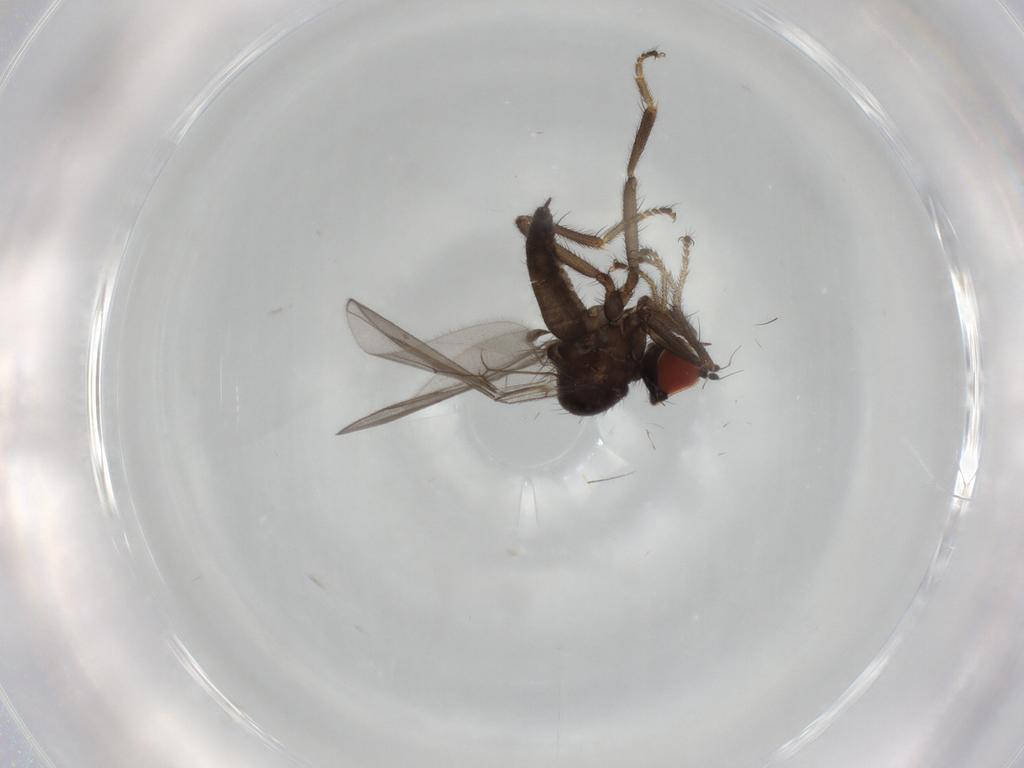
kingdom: Animalia
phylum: Arthropoda
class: Insecta
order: Diptera
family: Hybotidae
